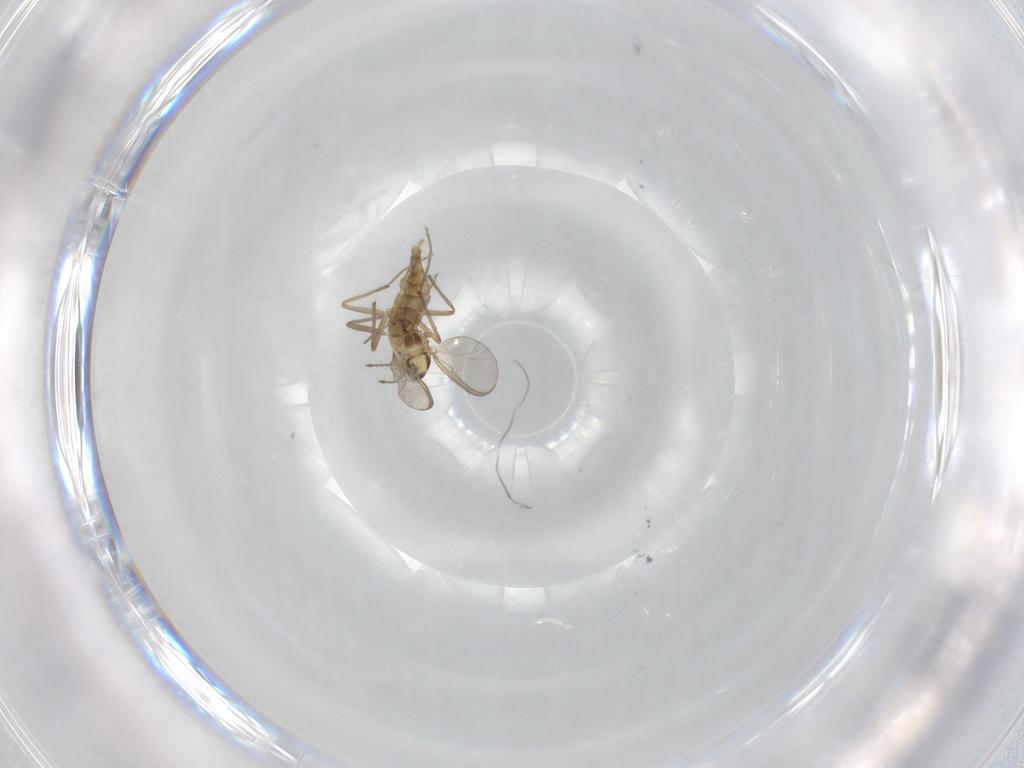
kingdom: Animalia
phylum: Arthropoda
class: Insecta
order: Diptera
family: Chironomidae
